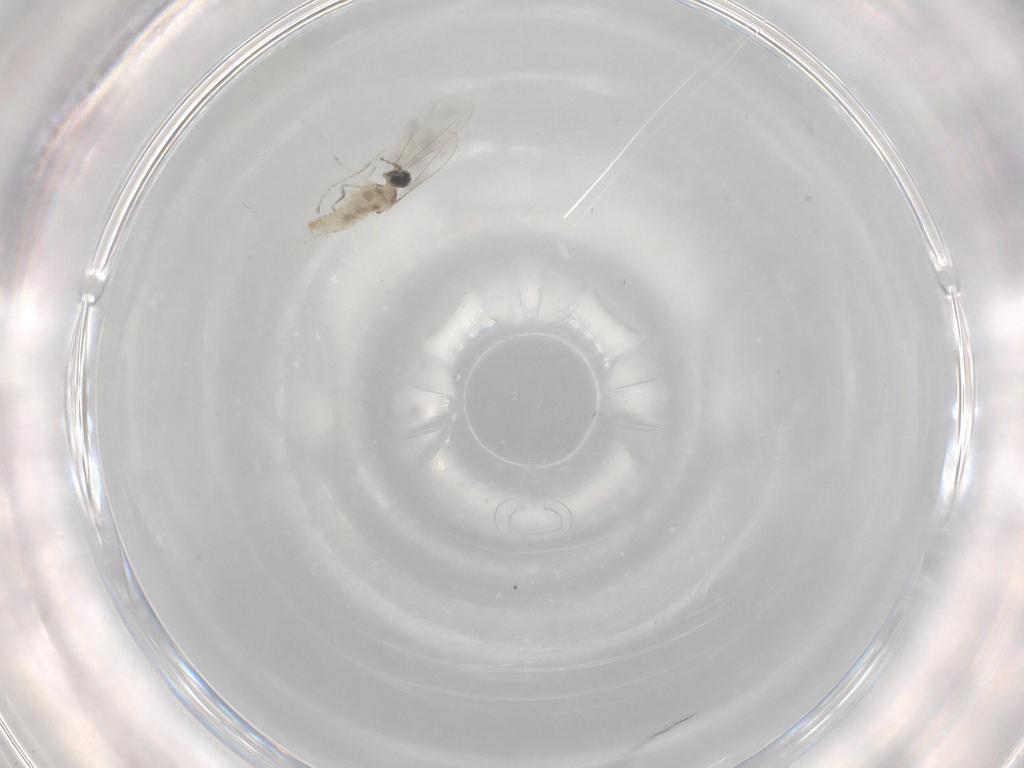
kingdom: Animalia
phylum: Arthropoda
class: Insecta
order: Diptera
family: Cecidomyiidae
